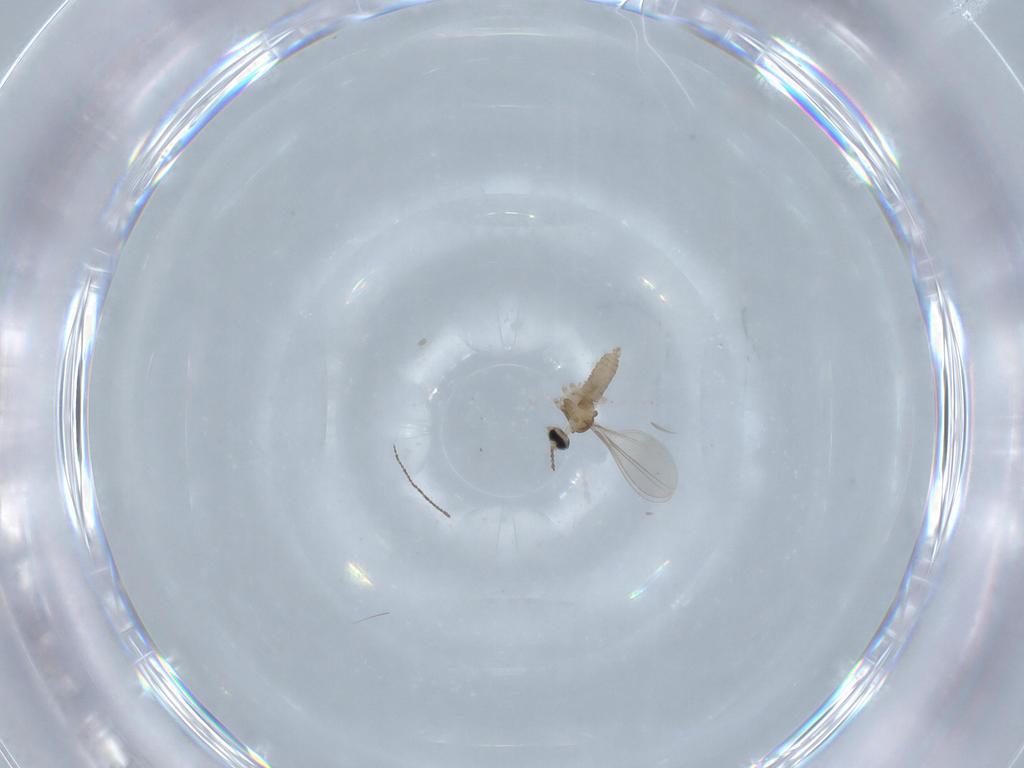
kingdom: Animalia
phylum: Arthropoda
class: Insecta
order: Diptera
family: Cecidomyiidae
